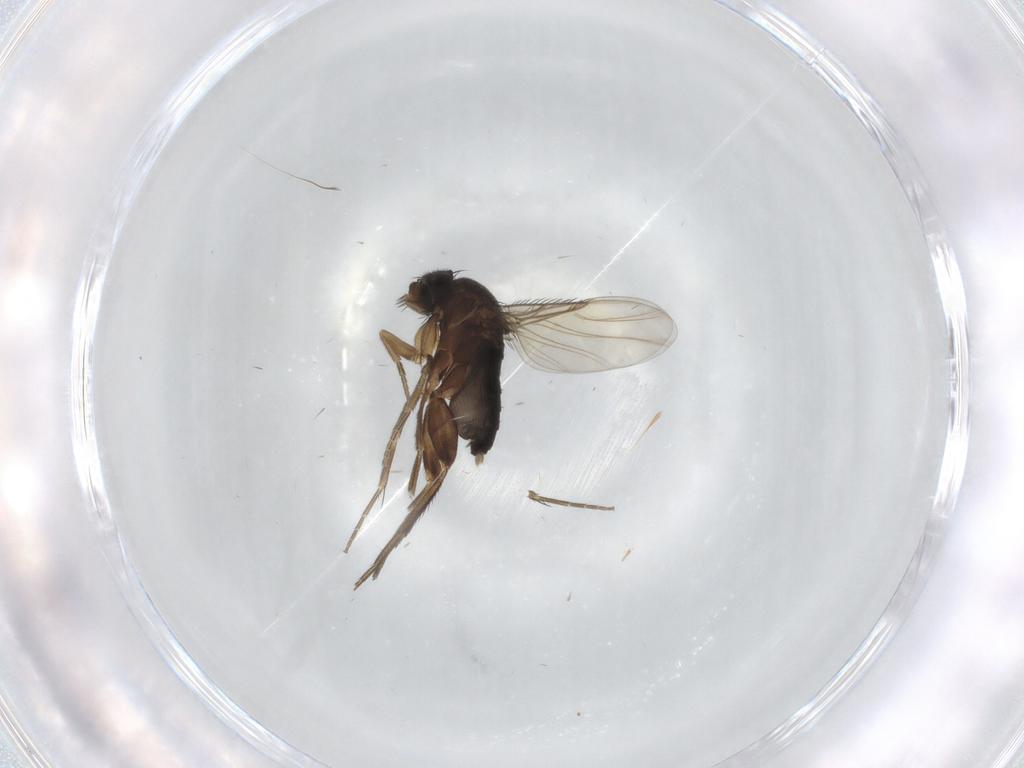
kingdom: Animalia
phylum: Arthropoda
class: Insecta
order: Diptera
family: Phoridae
